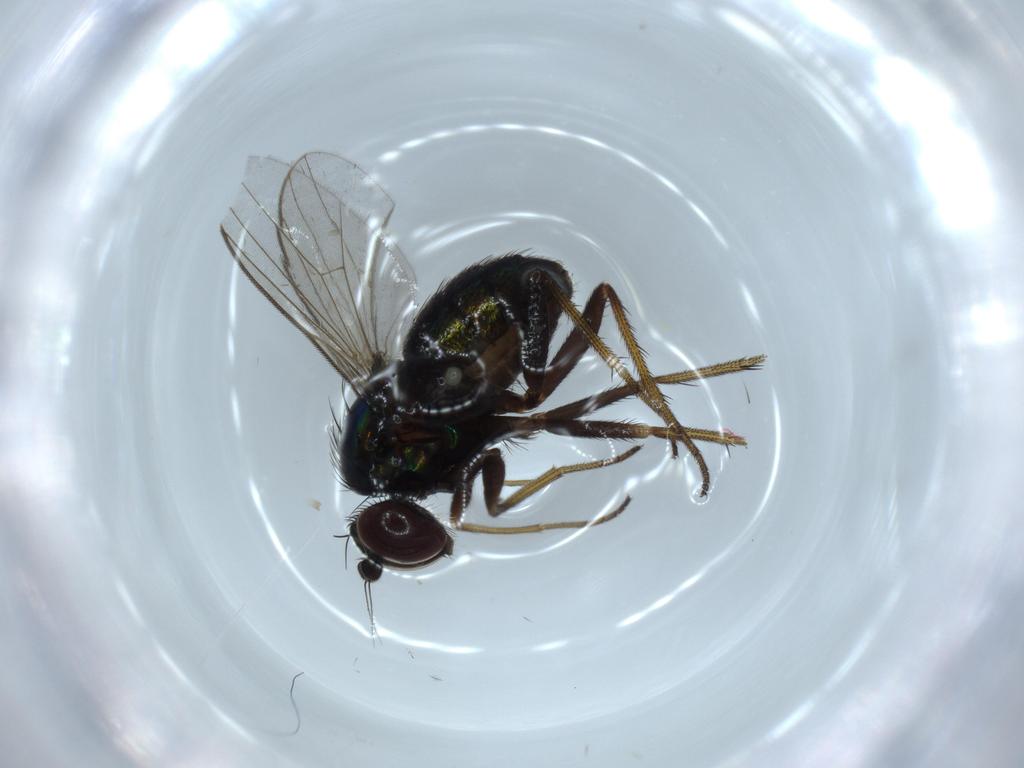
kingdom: Animalia
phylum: Arthropoda
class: Insecta
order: Diptera
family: Dolichopodidae
